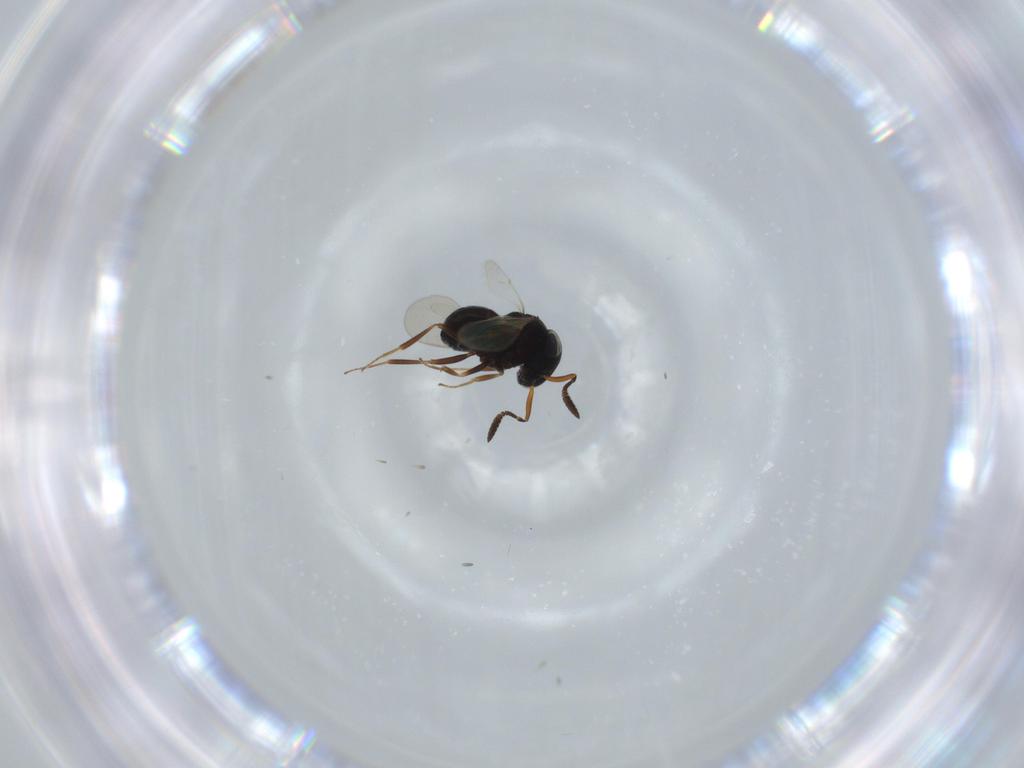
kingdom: Animalia
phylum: Arthropoda
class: Insecta
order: Hymenoptera
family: Scelionidae
